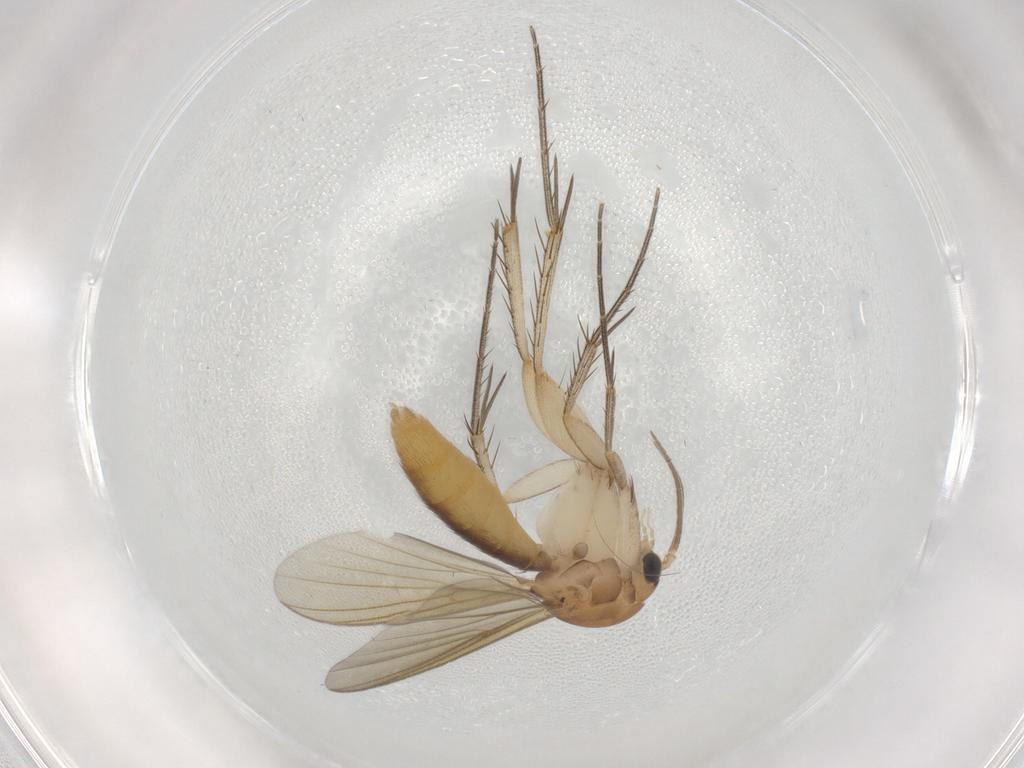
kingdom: Animalia
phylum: Arthropoda
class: Insecta
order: Diptera
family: Mycetophilidae
